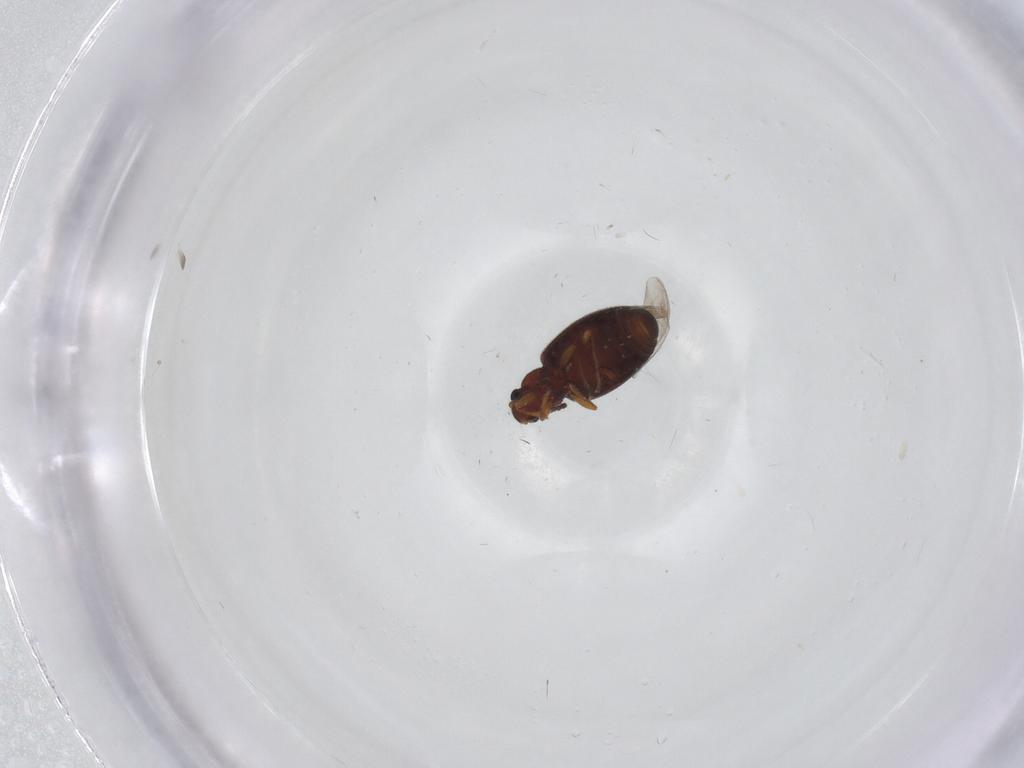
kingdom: Animalia
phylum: Arthropoda
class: Insecta
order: Coleoptera
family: Latridiidae
